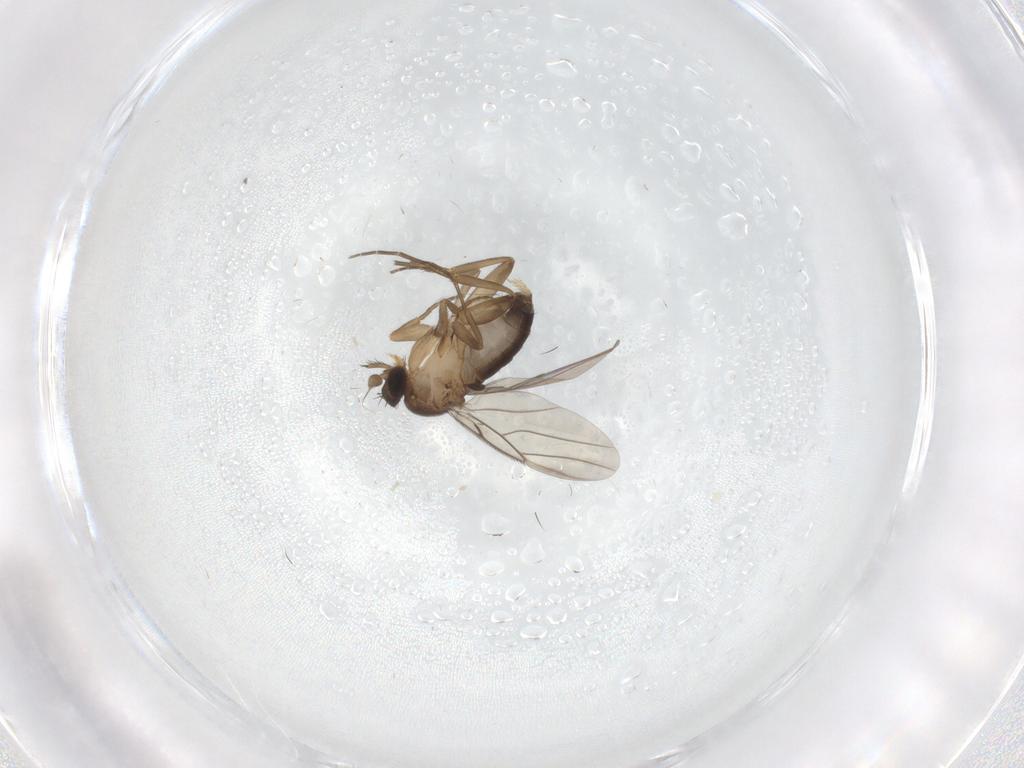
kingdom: Animalia
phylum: Arthropoda
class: Insecta
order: Diptera
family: Phoridae
